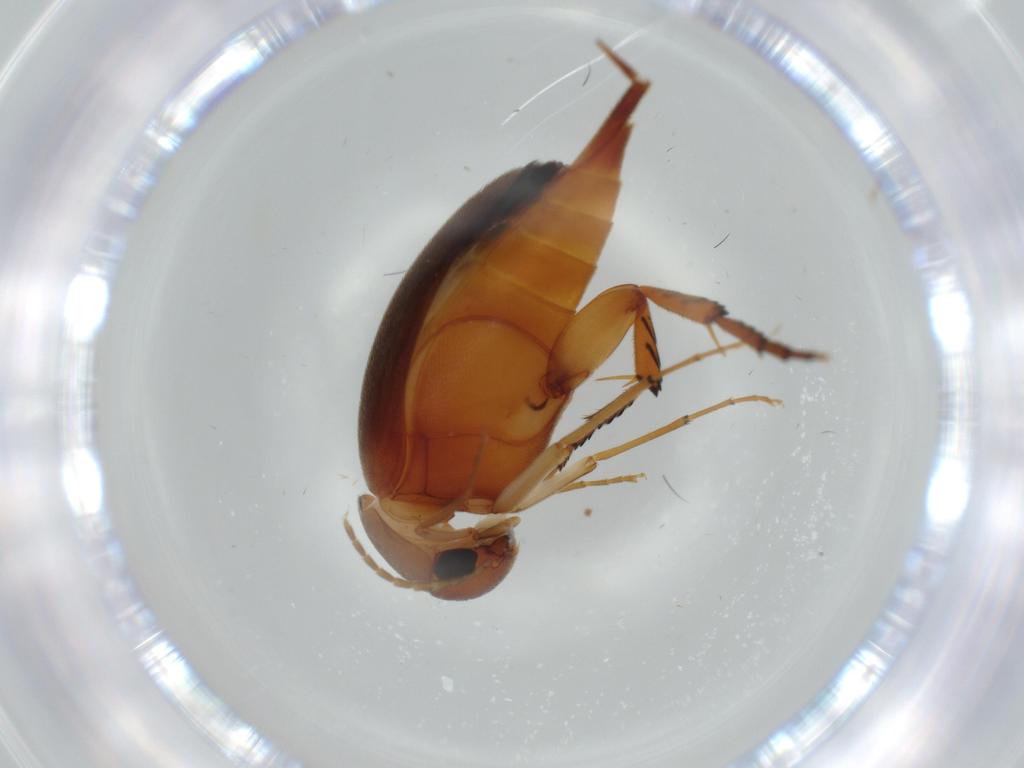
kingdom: Animalia
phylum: Arthropoda
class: Insecta
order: Coleoptera
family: Mordellidae
